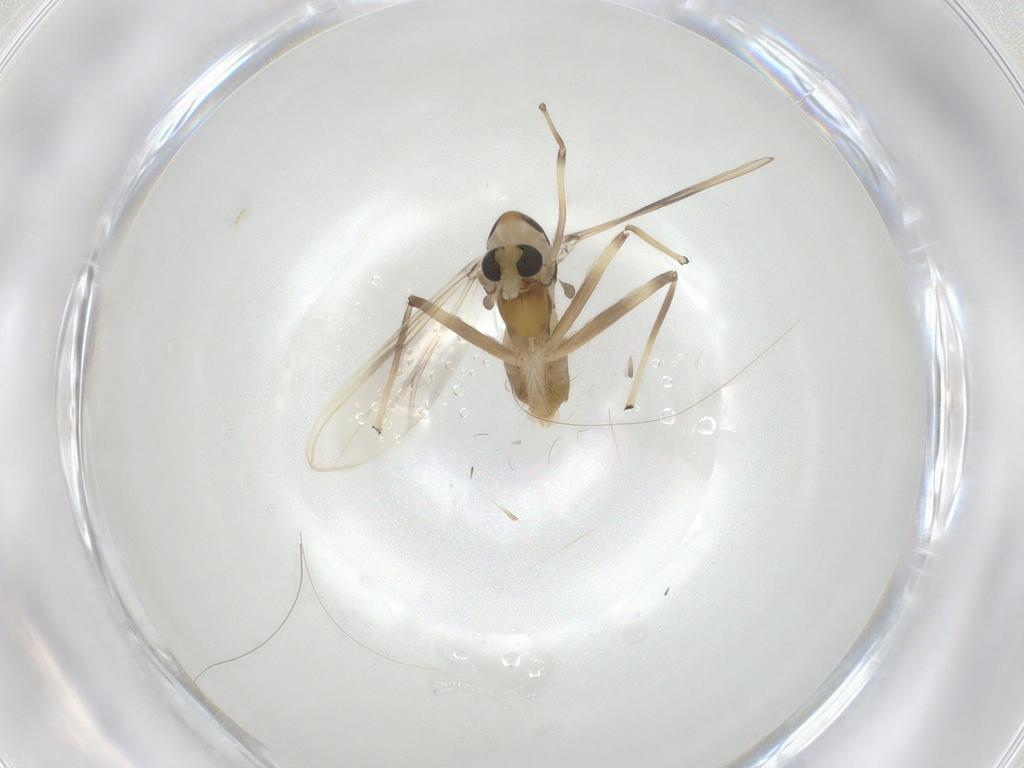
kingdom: Animalia
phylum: Arthropoda
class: Insecta
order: Diptera
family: Chironomidae
